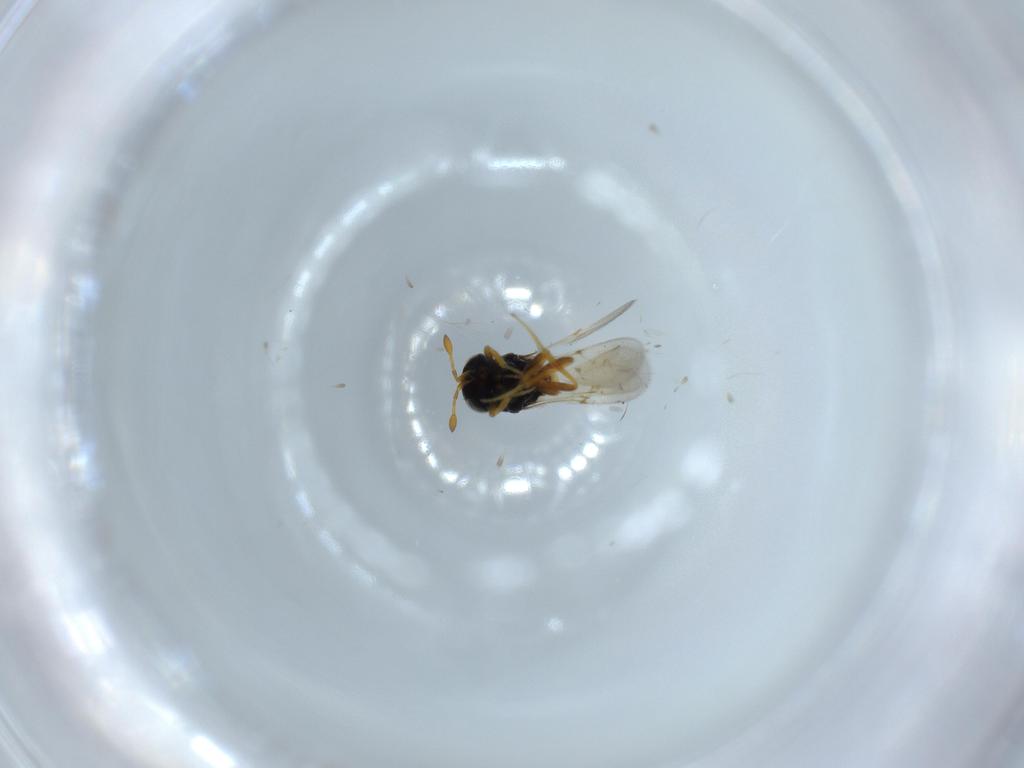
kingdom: Animalia
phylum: Arthropoda
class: Insecta
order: Hymenoptera
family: Scelionidae
